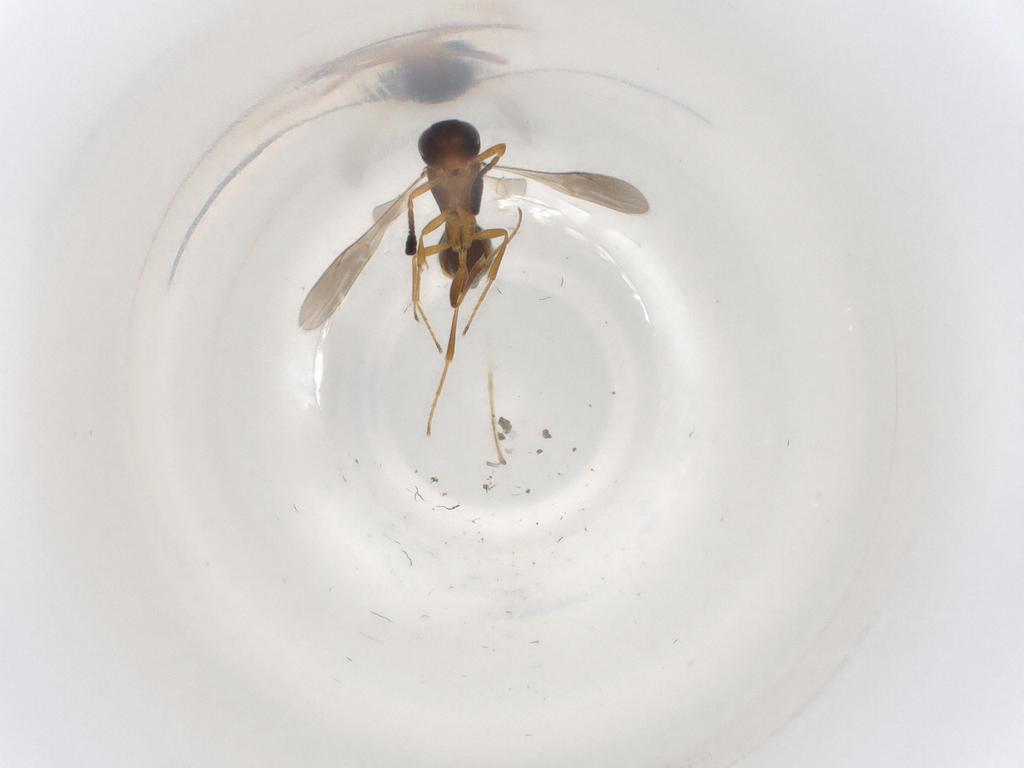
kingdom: Animalia
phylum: Arthropoda
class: Insecta
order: Hymenoptera
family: Scelionidae
